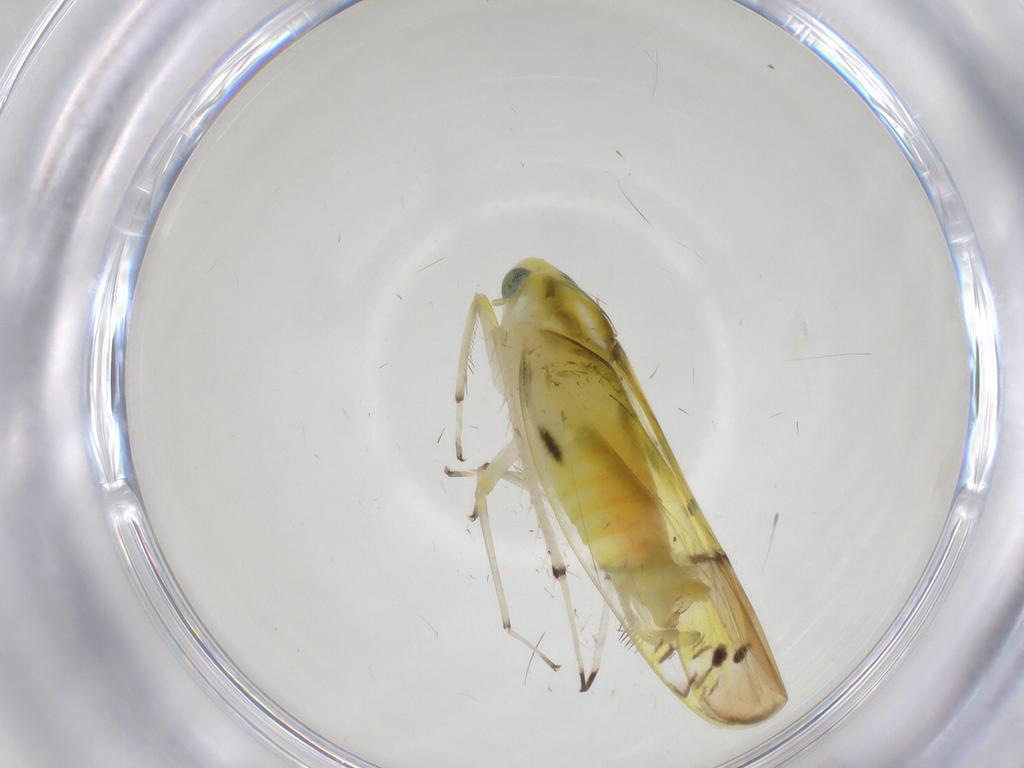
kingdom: Animalia
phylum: Arthropoda
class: Insecta
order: Hemiptera
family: Cicadellidae
